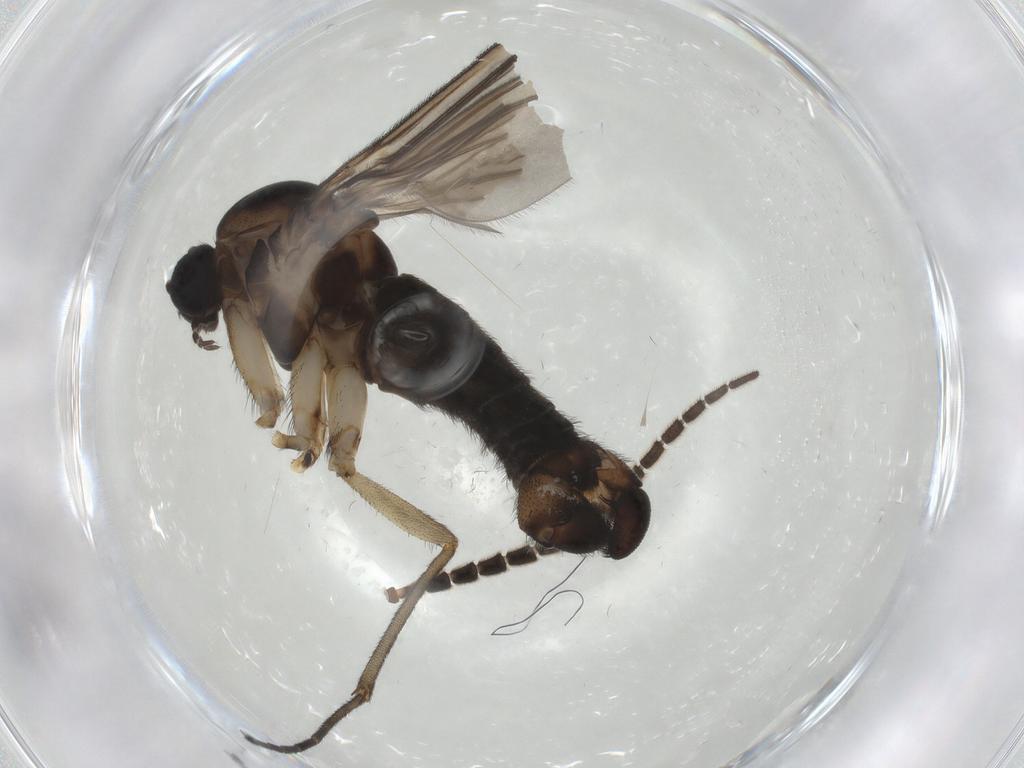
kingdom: Animalia
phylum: Arthropoda
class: Insecta
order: Diptera
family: Sciaridae
